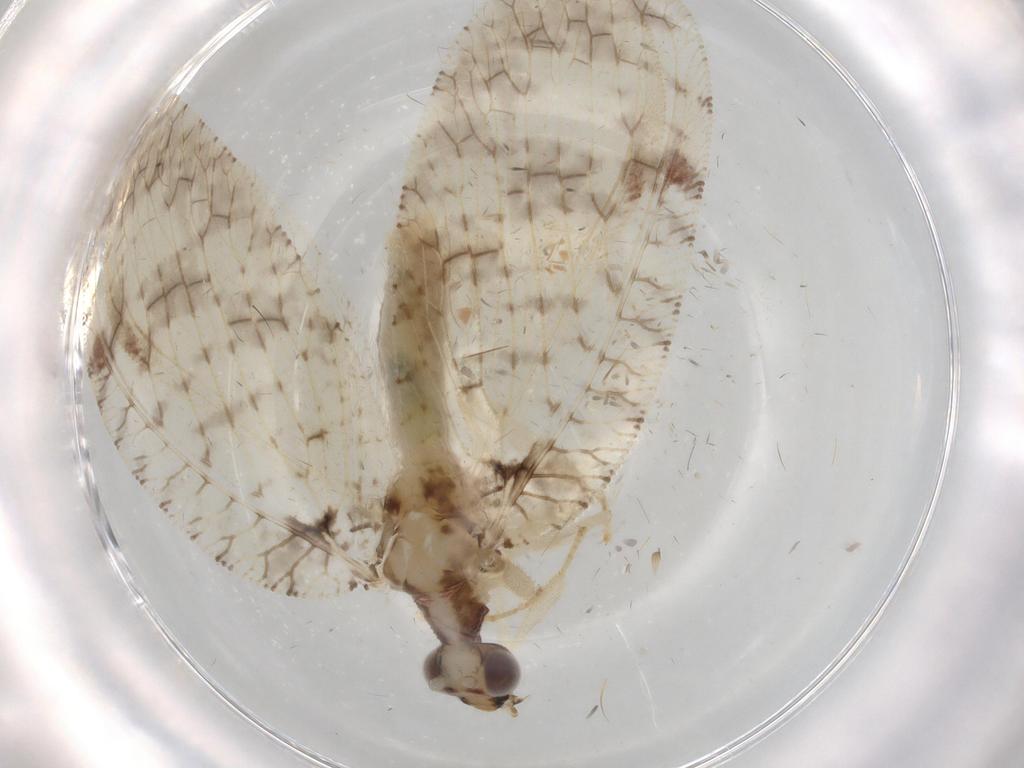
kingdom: Animalia
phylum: Arthropoda
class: Insecta
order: Neuroptera
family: Hemerobiidae
